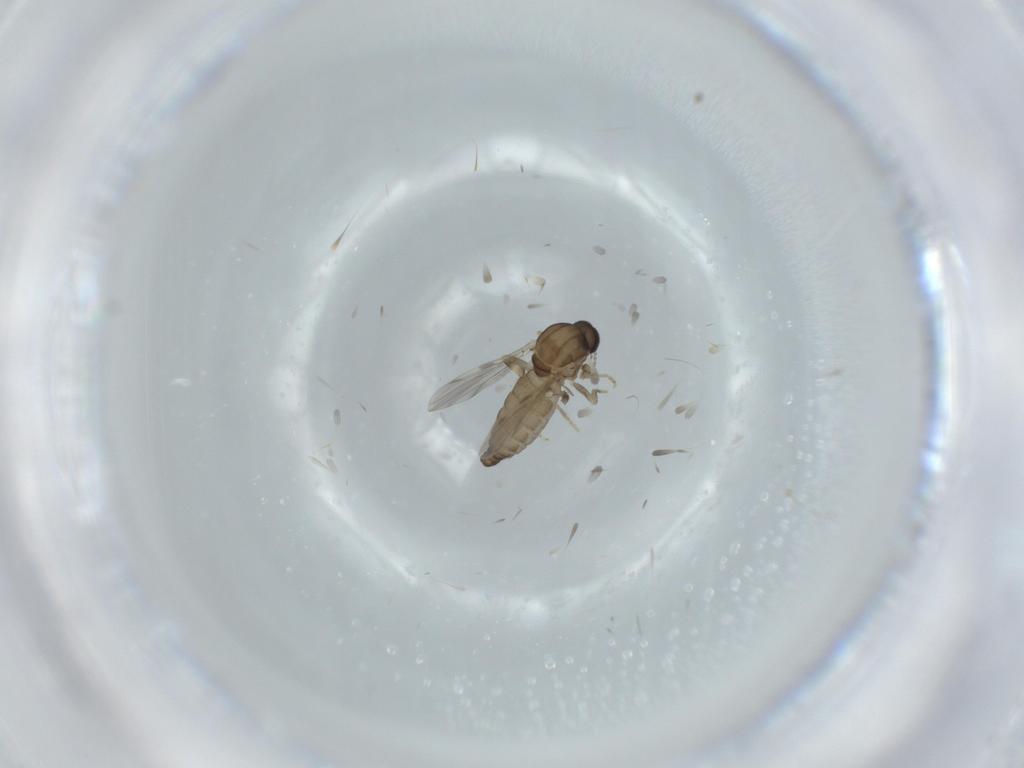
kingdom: Animalia
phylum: Arthropoda
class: Insecta
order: Diptera
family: Ceratopogonidae
